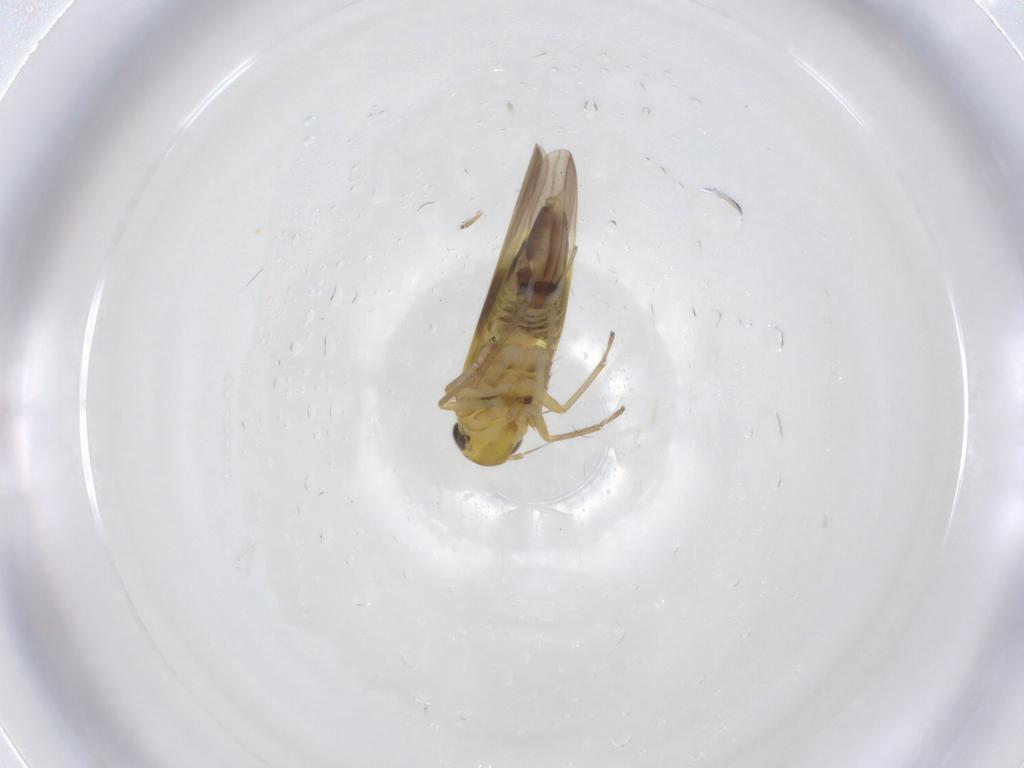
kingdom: Animalia
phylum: Arthropoda
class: Insecta
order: Hemiptera
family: Cicadellidae
